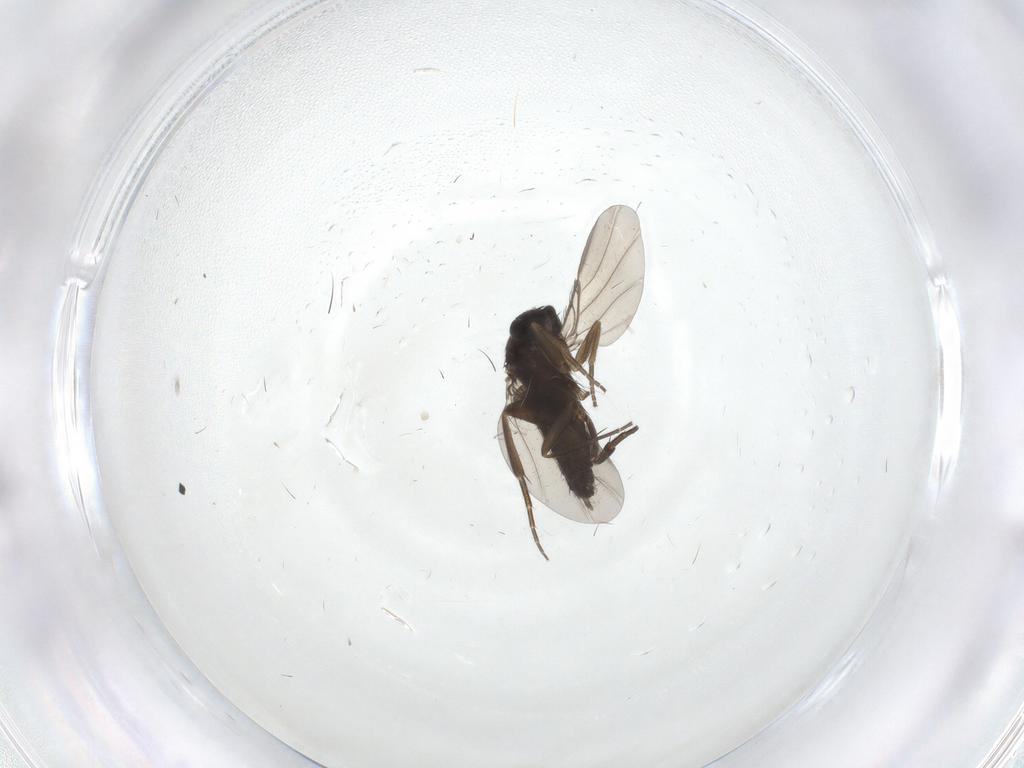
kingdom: Animalia
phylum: Arthropoda
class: Insecta
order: Diptera
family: Phoridae
